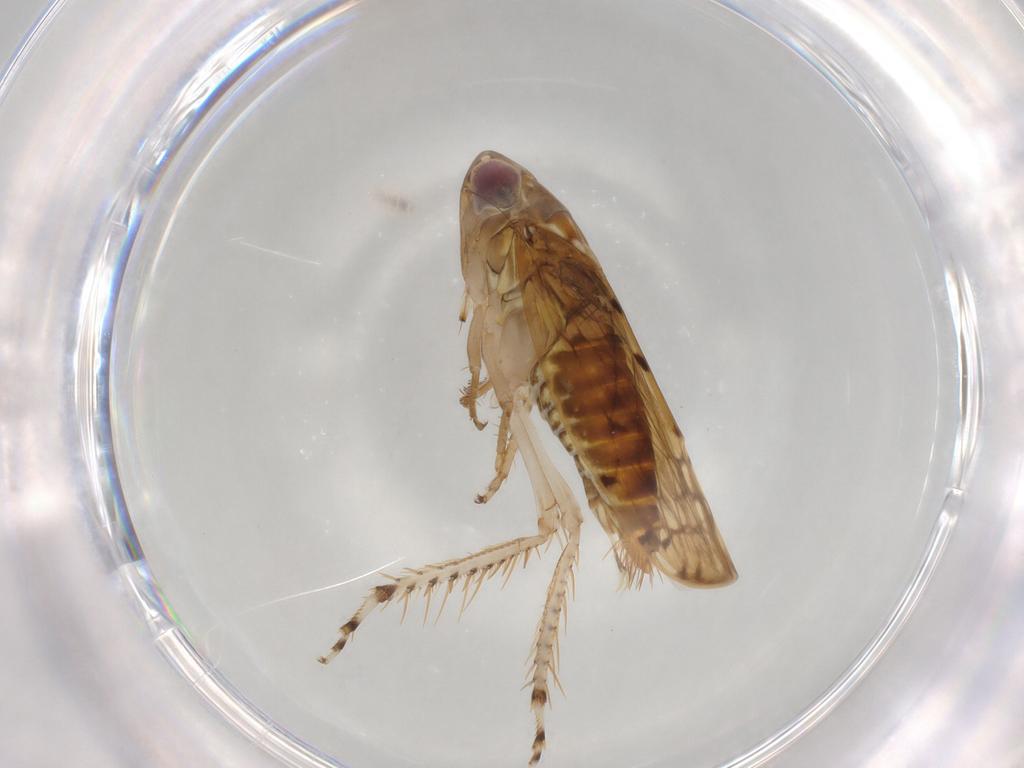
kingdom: Animalia
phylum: Arthropoda
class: Insecta
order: Hemiptera
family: Cicadellidae
